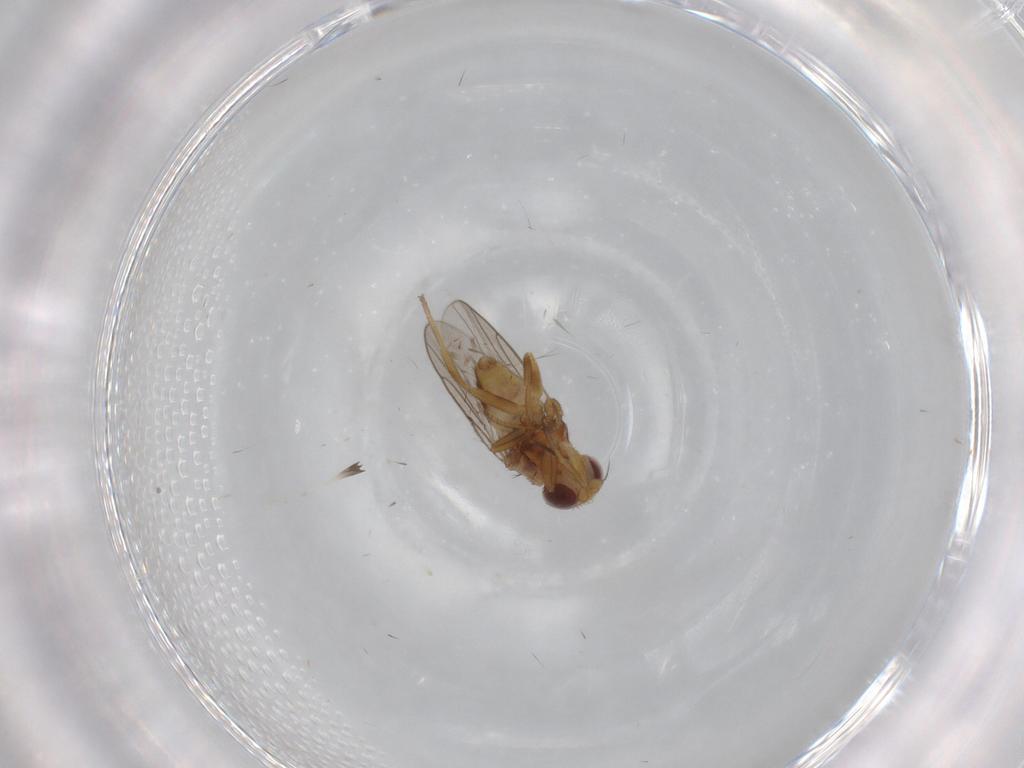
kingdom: Animalia
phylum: Arthropoda
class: Insecta
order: Diptera
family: Chloropidae
